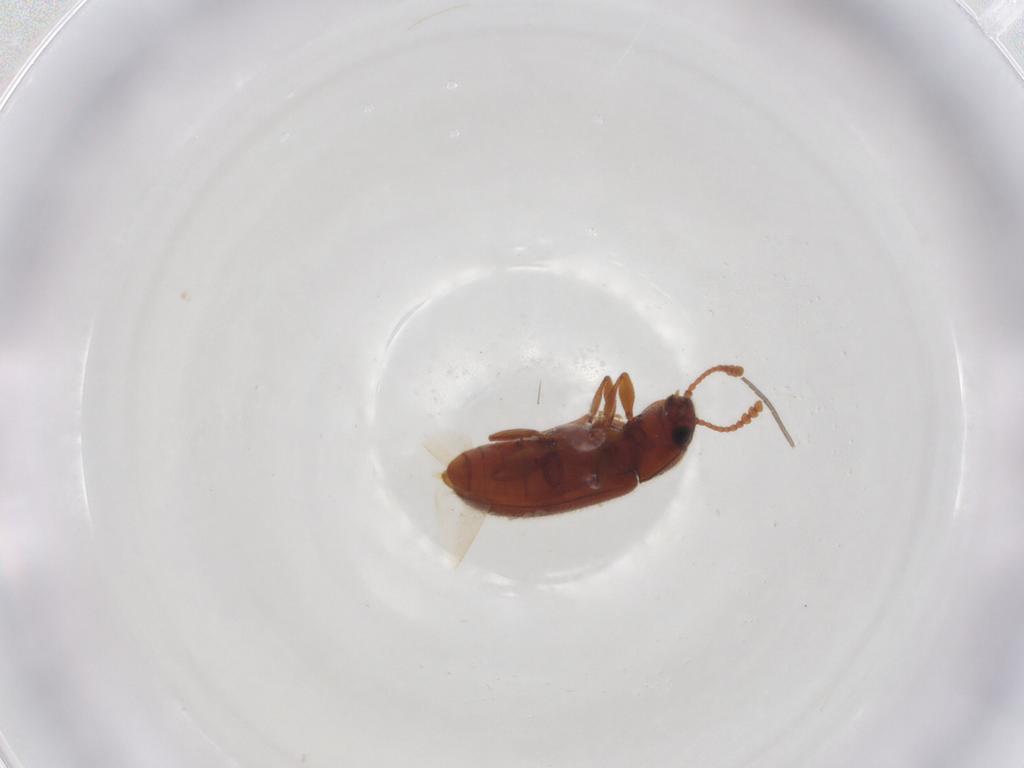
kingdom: Animalia
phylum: Arthropoda
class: Insecta
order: Coleoptera
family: Erotylidae
